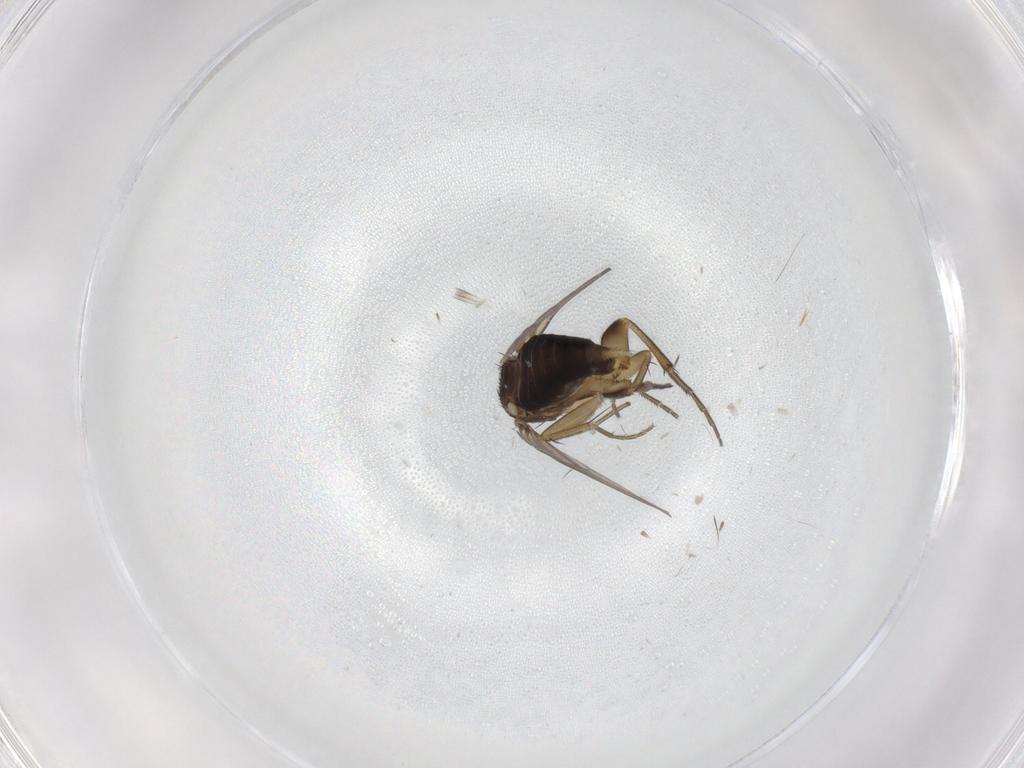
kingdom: Animalia
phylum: Arthropoda
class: Insecta
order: Diptera
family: Phoridae
